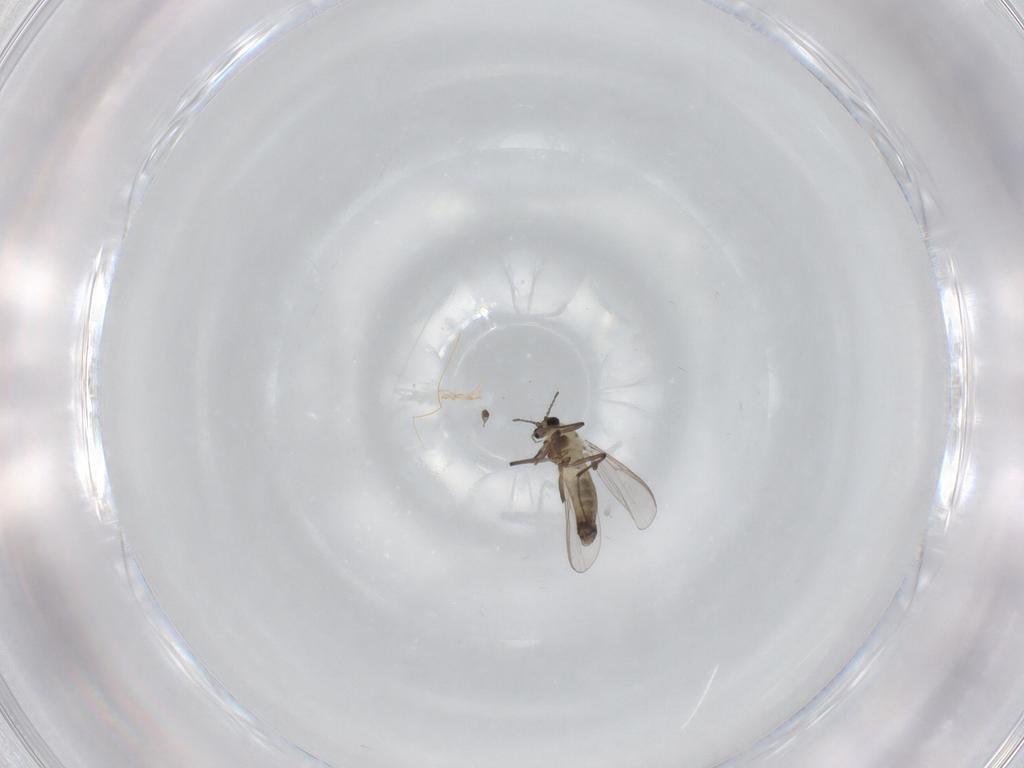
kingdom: Animalia
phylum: Arthropoda
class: Insecta
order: Diptera
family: Chironomidae
